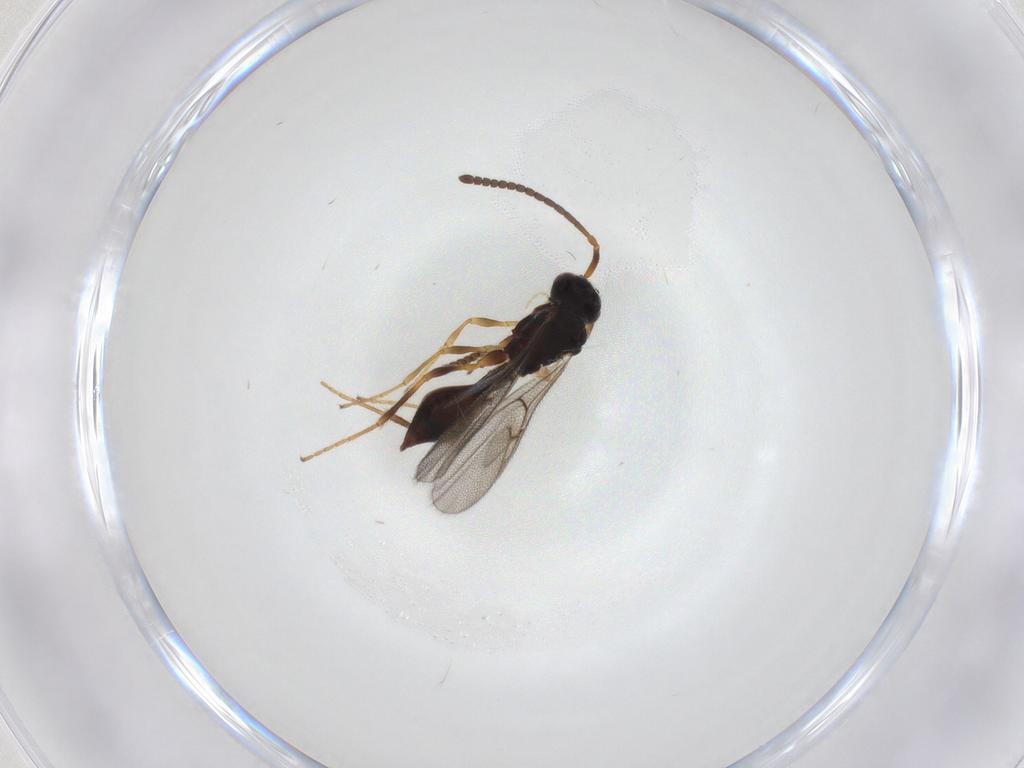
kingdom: Animalia
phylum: Arthropoda
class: Insecta
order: Hymenoptera
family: Diapriidae
